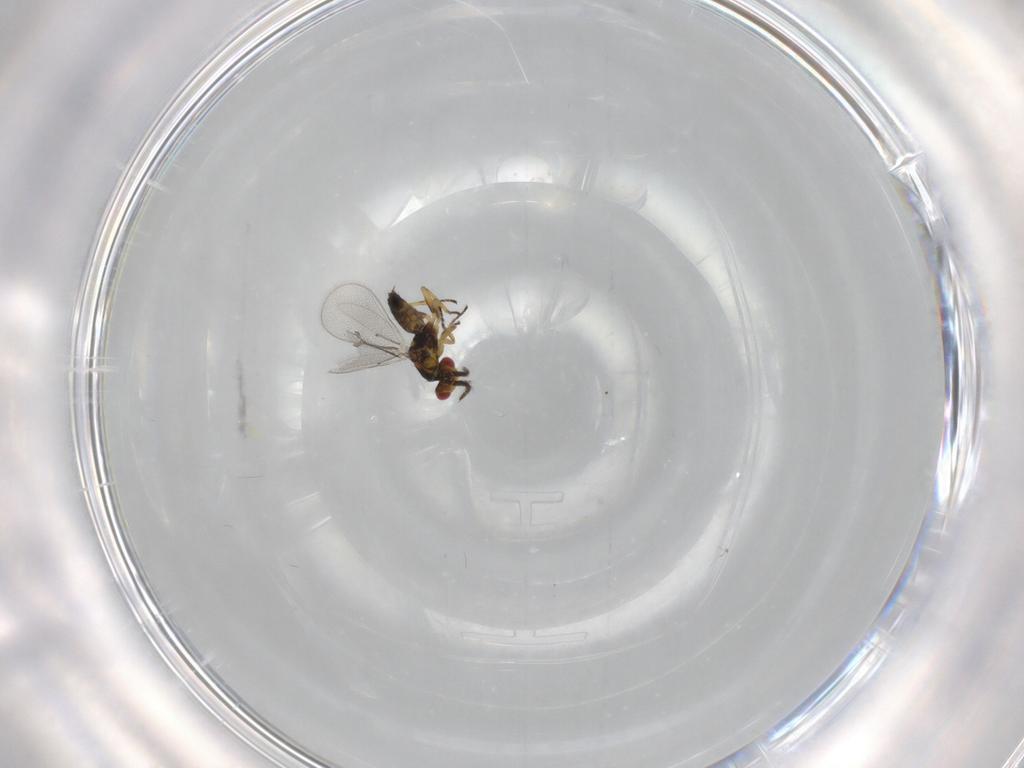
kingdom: Animalia
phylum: Arthropoda
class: Insecta
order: Hymenoptera
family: Eulophidae
